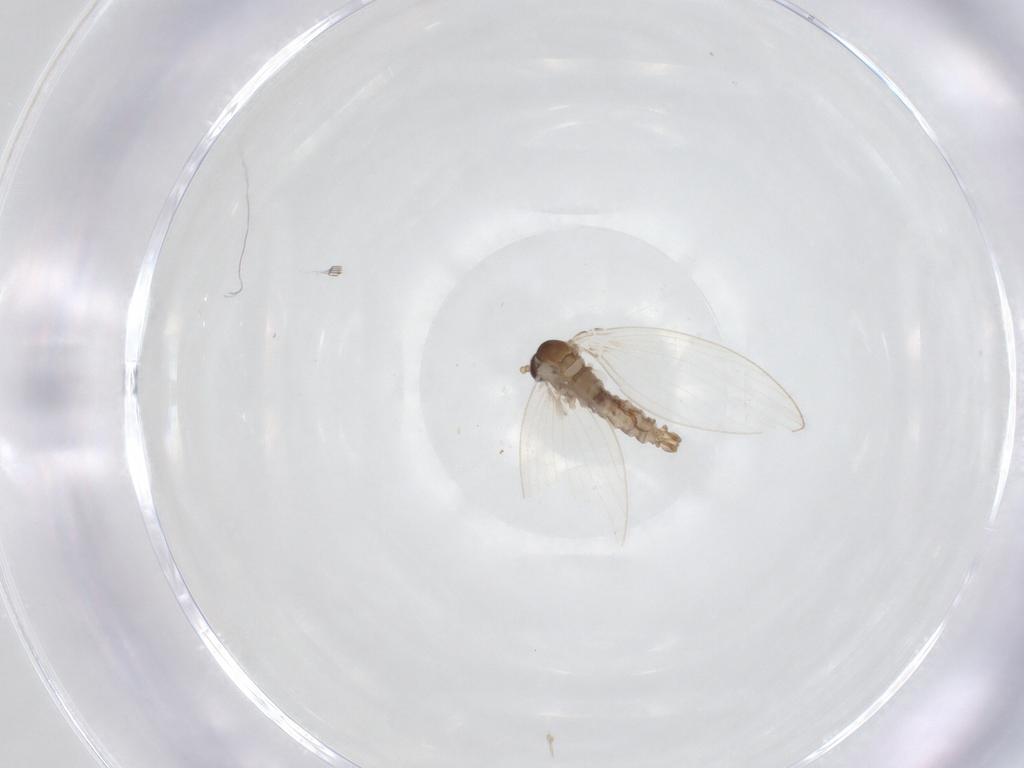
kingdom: Animalia
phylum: Arthropoda
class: Insecta
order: Diptera
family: Psychodidae
